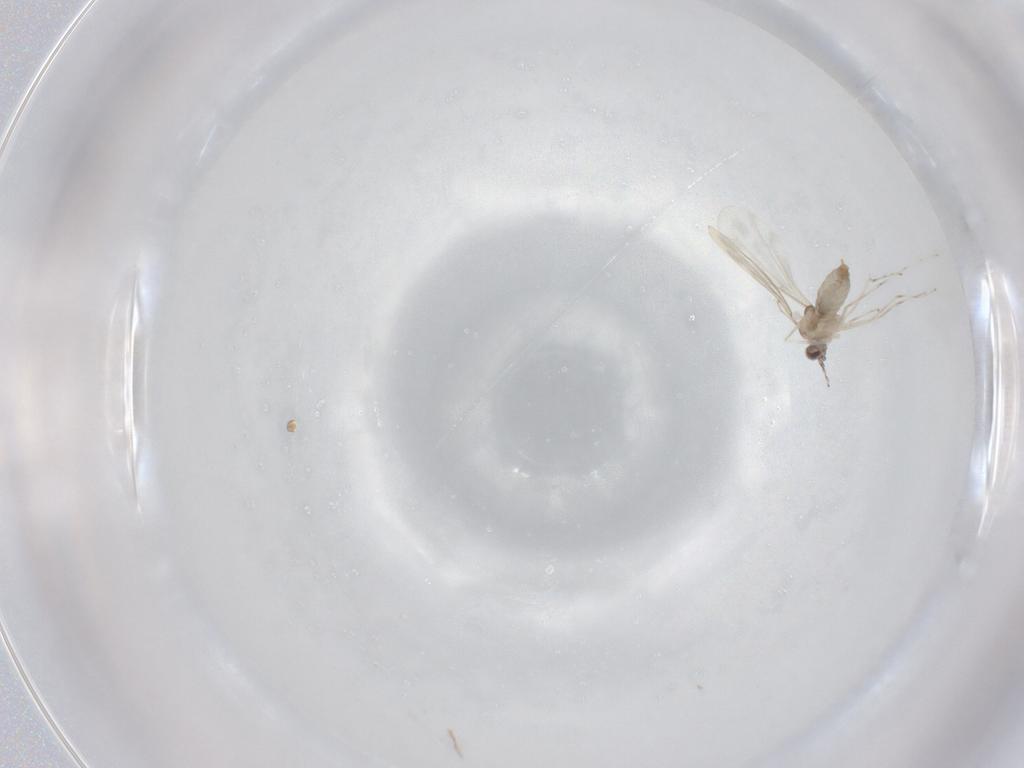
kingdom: Animalia
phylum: Arthropoda
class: Insecta
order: Diptera
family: Cecidomyiidae
